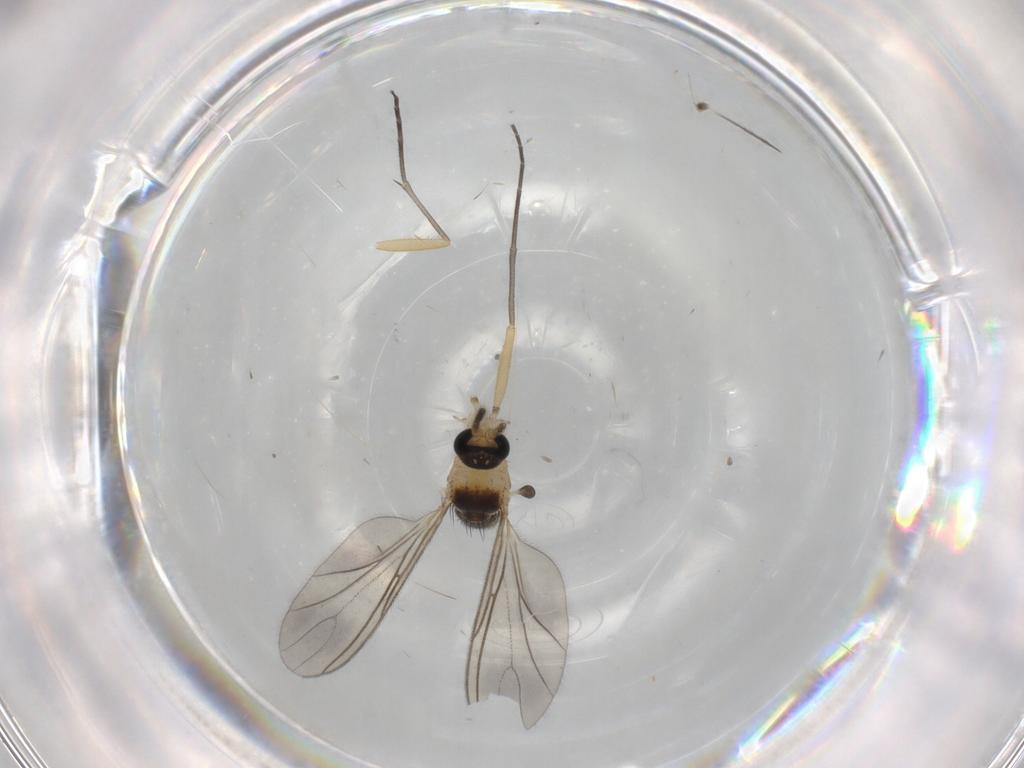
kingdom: Animalia
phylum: Arthropoda
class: Insecta
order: Diptera
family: Sciaridae
